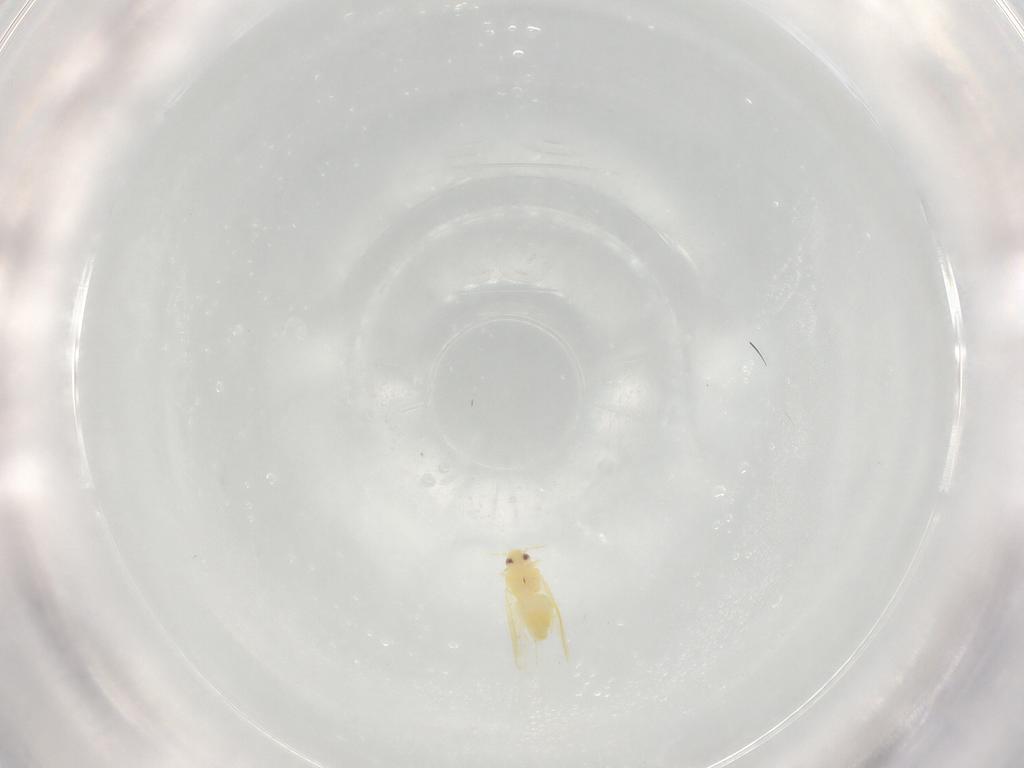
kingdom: Animalia
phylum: Arthropoda
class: Insecta
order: Hemiptera
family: Aleyrodidae
